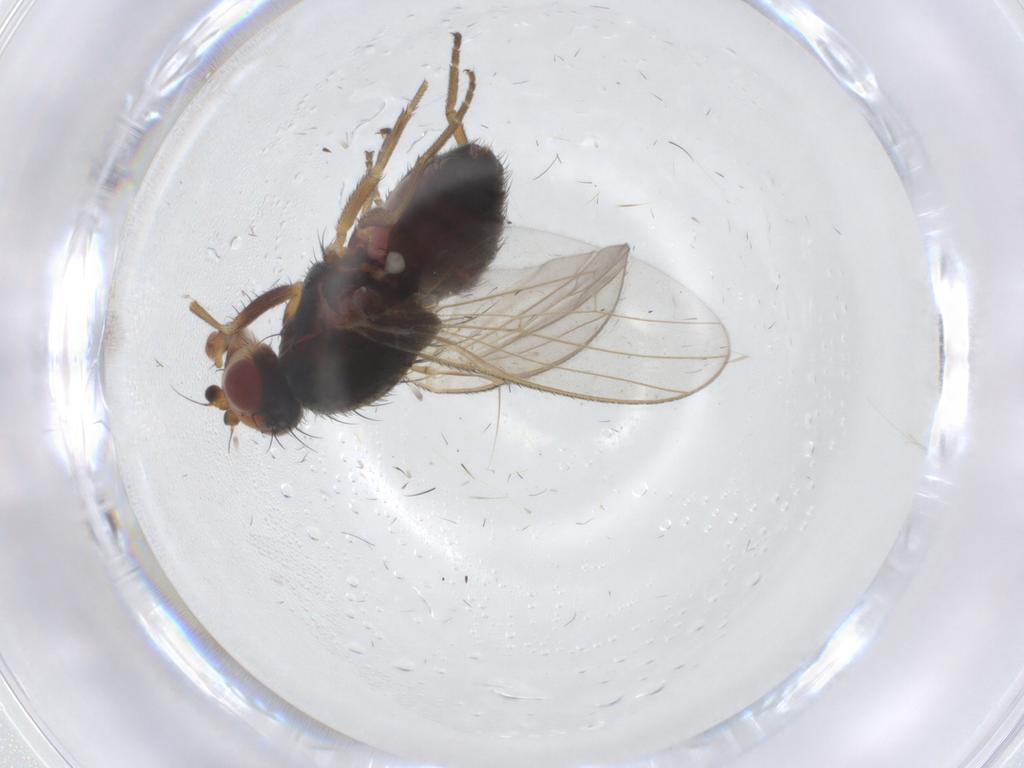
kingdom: Animalia
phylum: Arthropoda
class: Insecta
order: Diptera
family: Heleomyzidae
